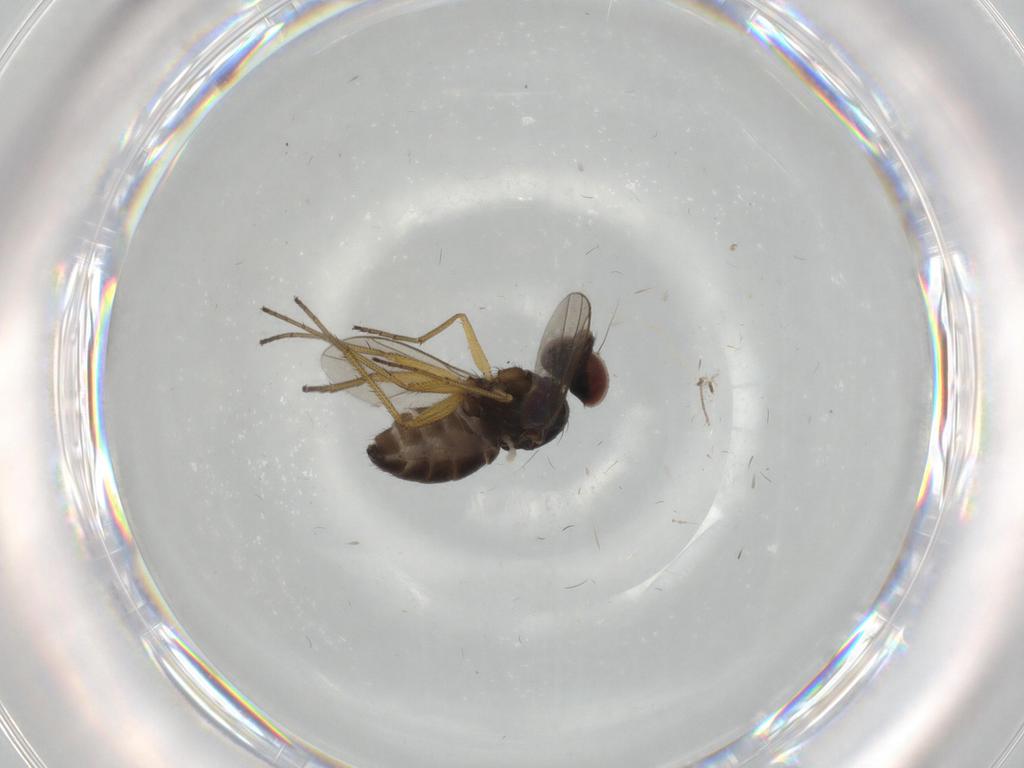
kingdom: Animalia
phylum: Arthropoda
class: Insecta
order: Diptera
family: Dolichopodidae
